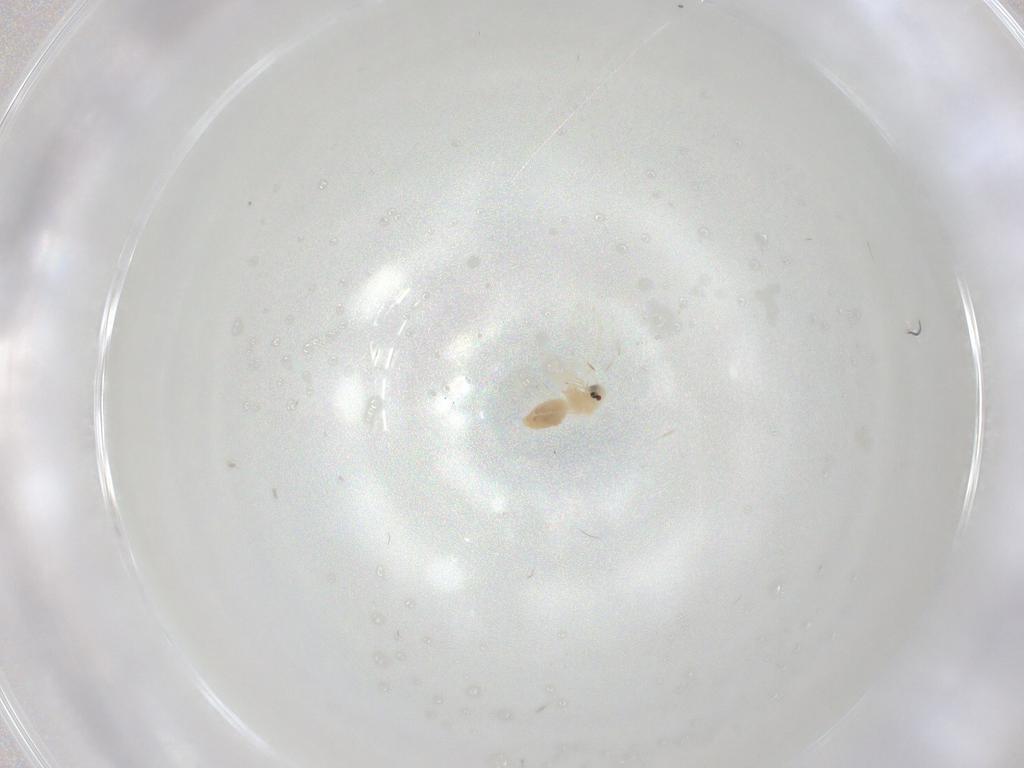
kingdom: Animalia
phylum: Arthropoda
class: Insecta
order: Hemiptera
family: Aleyrodidae
